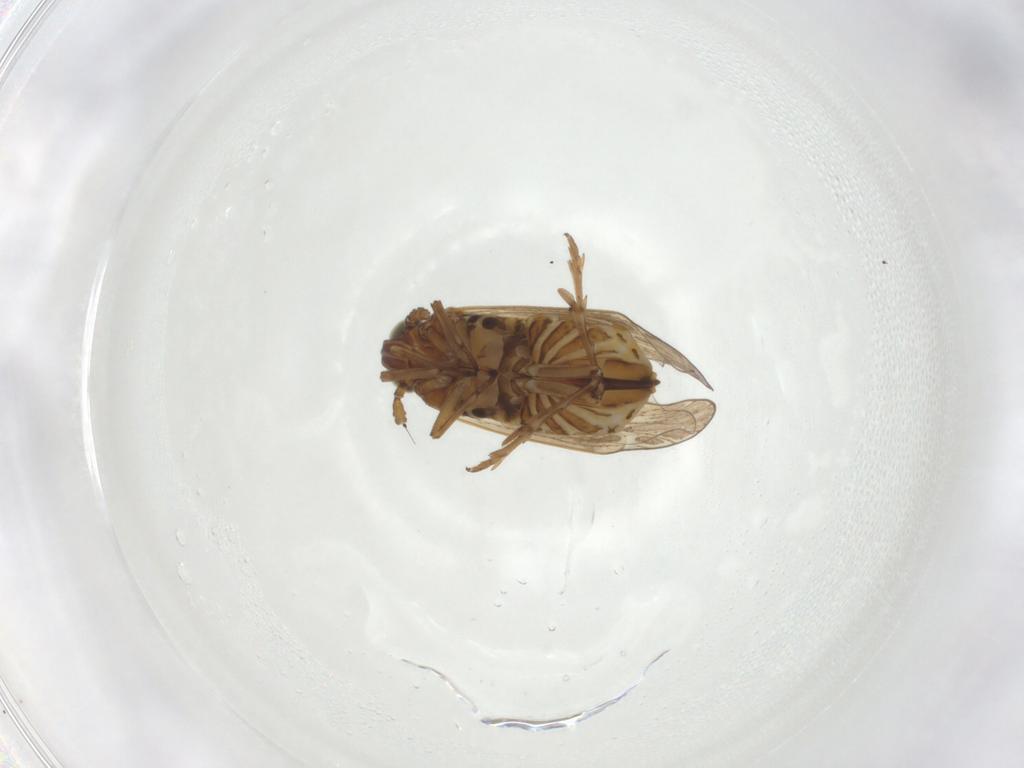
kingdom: Animalia
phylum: Arthropoda
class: Insecta
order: Hemiptera
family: Delphacidae
